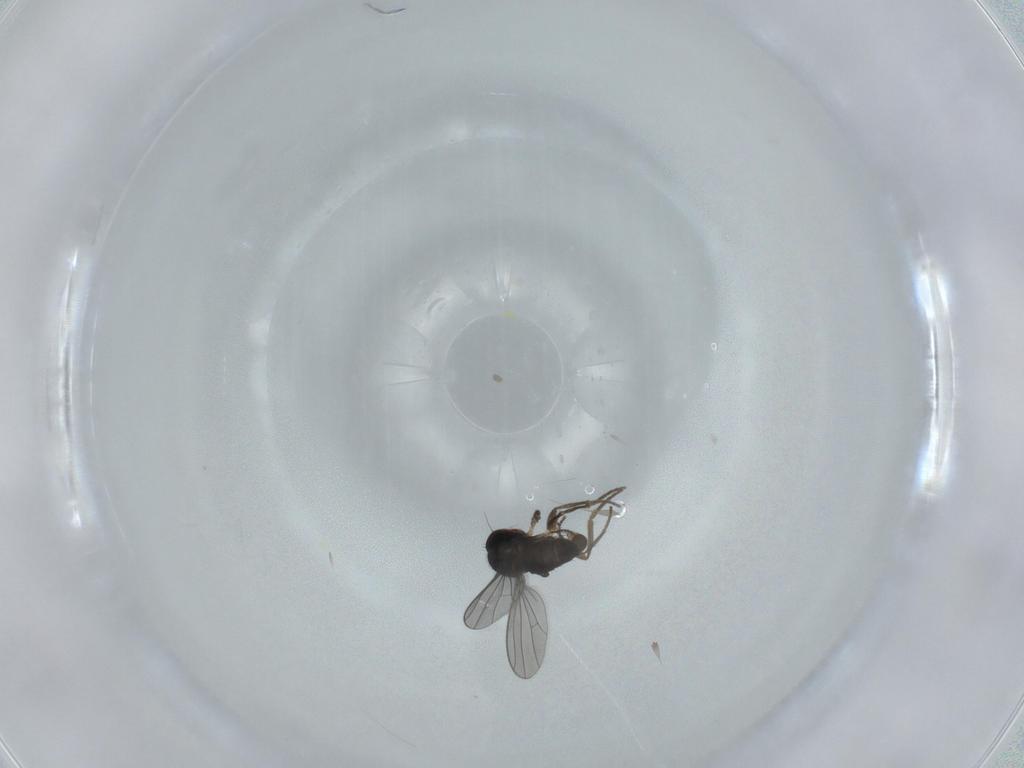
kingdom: Animalia
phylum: Arthropoda
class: Insecta
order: Diptera
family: Dolichopodidae
